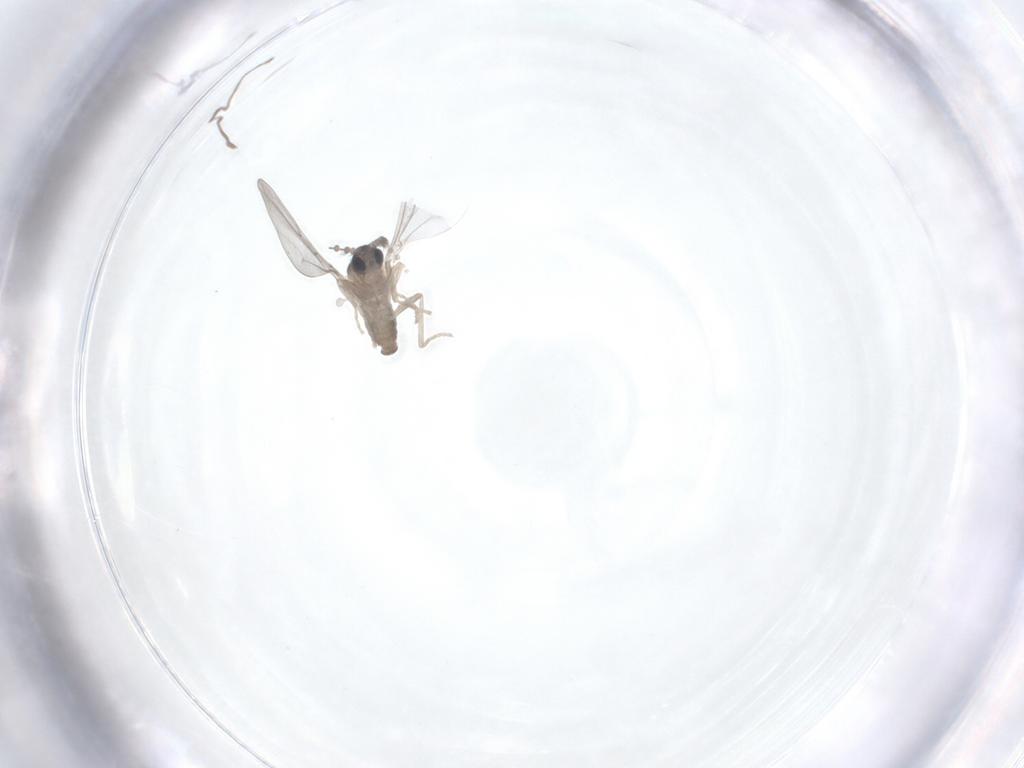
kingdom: Animalia
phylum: Arthropoda
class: Insecta
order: Diptera
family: Cecidomyiidae
